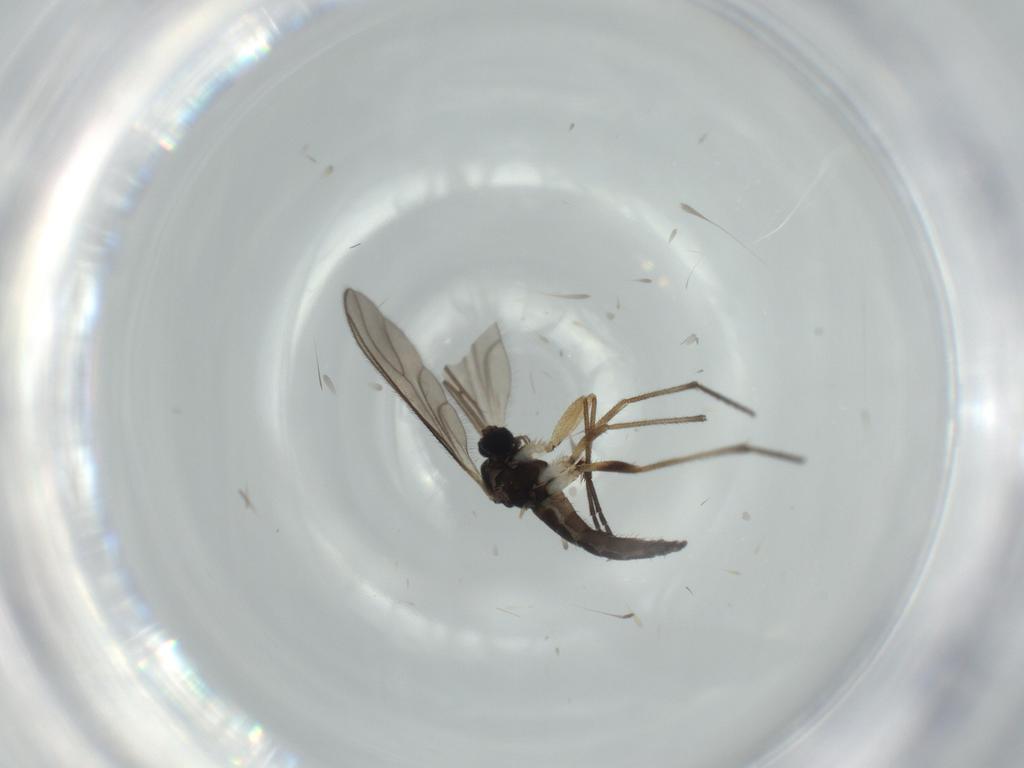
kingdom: Animalia
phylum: Arthropoda
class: Insecta
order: Diptera
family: Sciaridae
